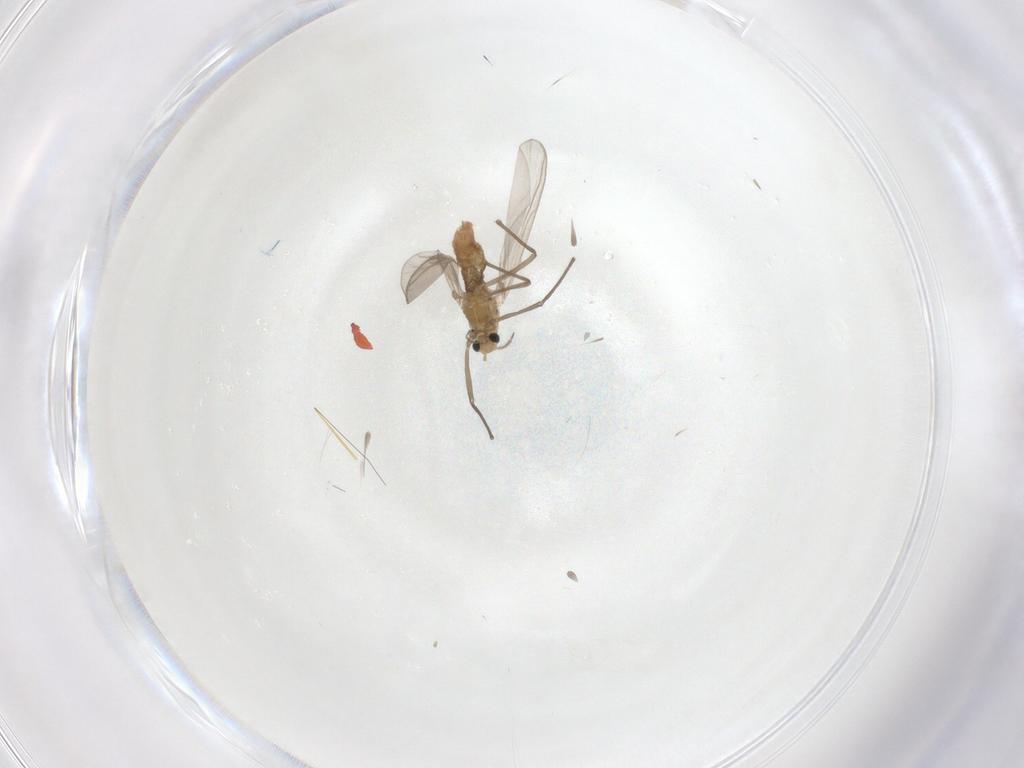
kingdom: Animalia
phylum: Arthropoda
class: Insecta
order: Diptera
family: Chironomidae
